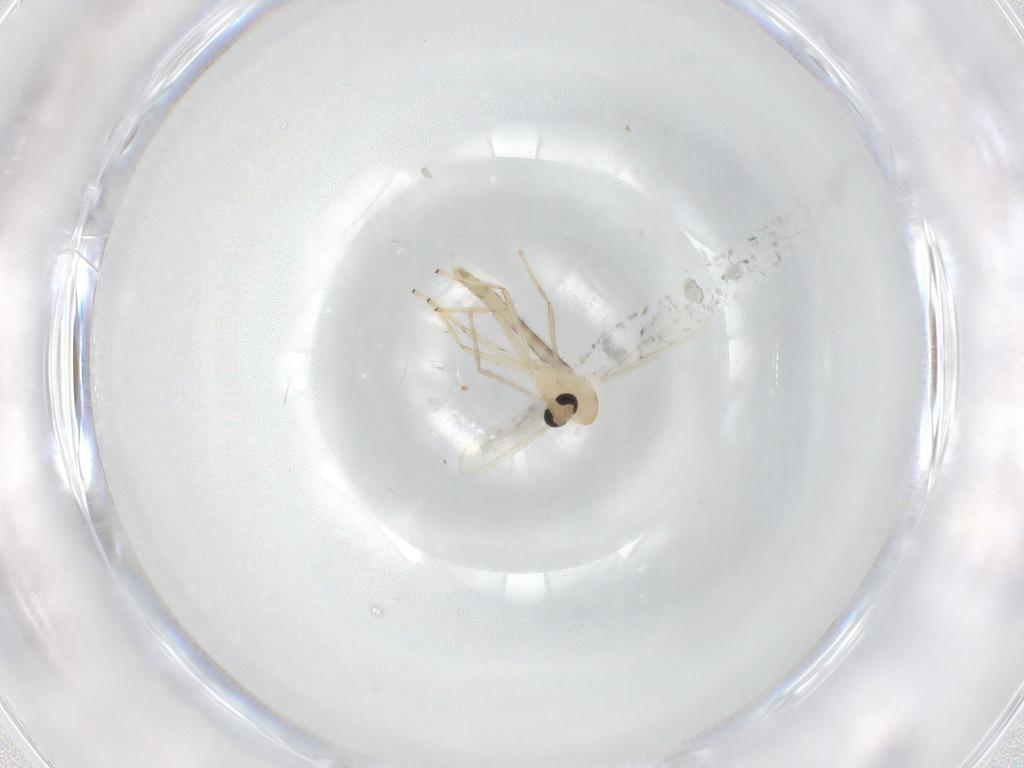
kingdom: Animalia
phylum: Arthropoda
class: Insecta
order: Diptera
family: Chironomidae
